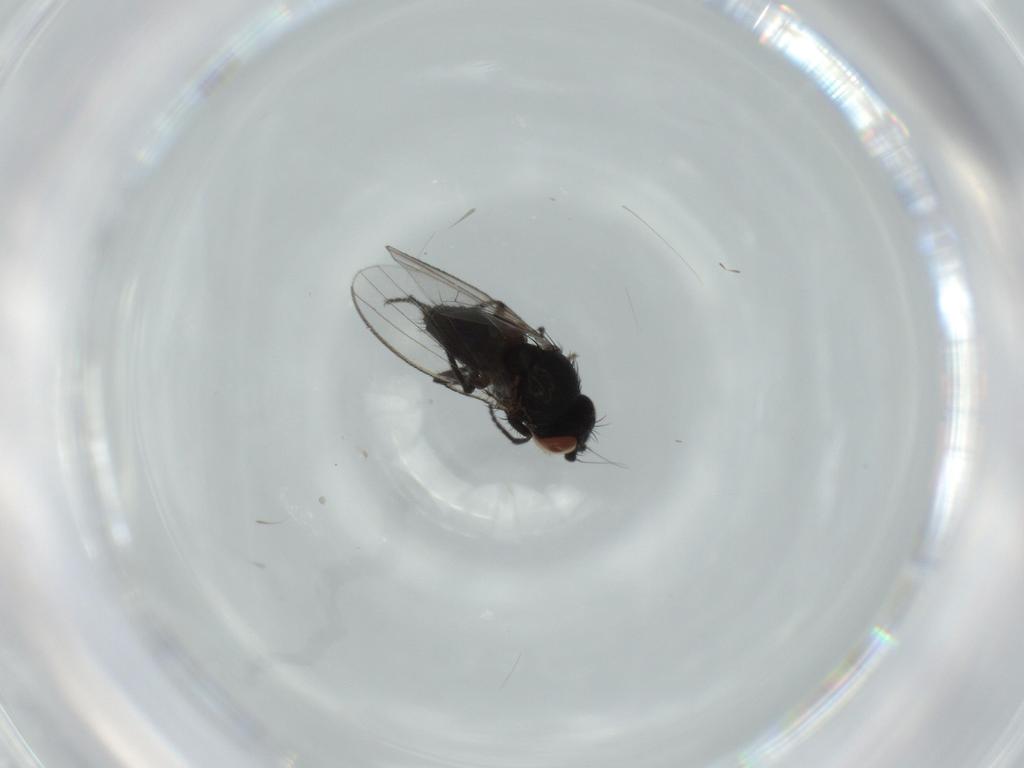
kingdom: Animalia
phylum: Arthropoda
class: Insecta
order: Diptera
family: Milichiidae
